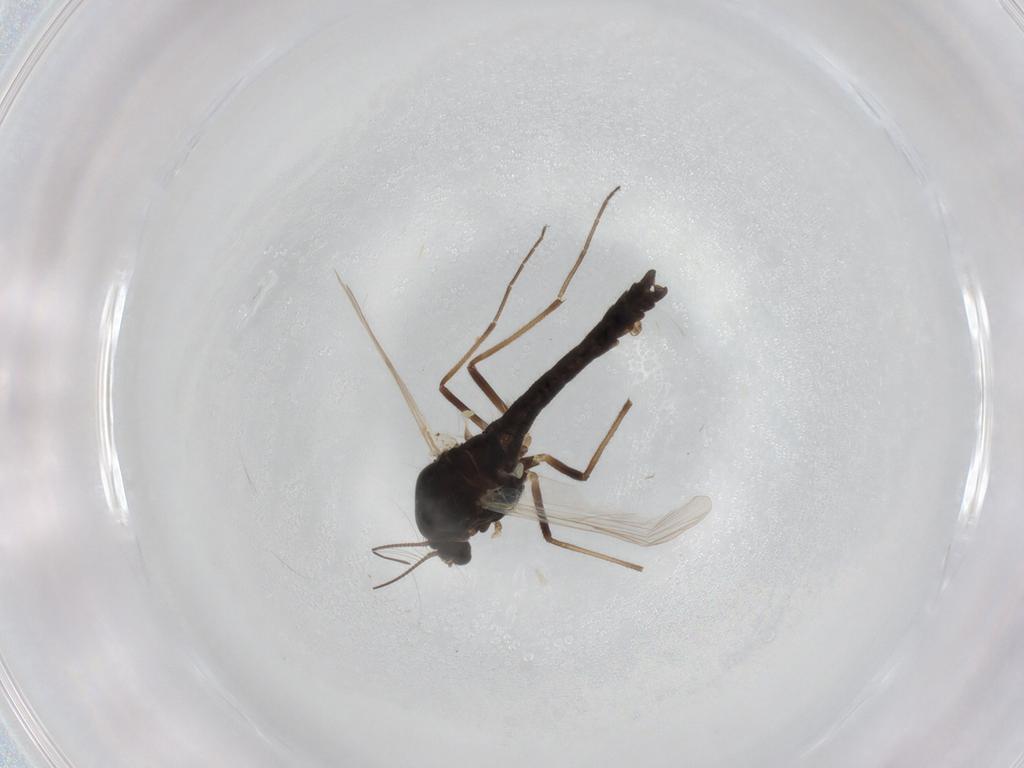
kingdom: Animalia
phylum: Arthropoda
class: Insecta
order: Diptera
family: Chironomidae
